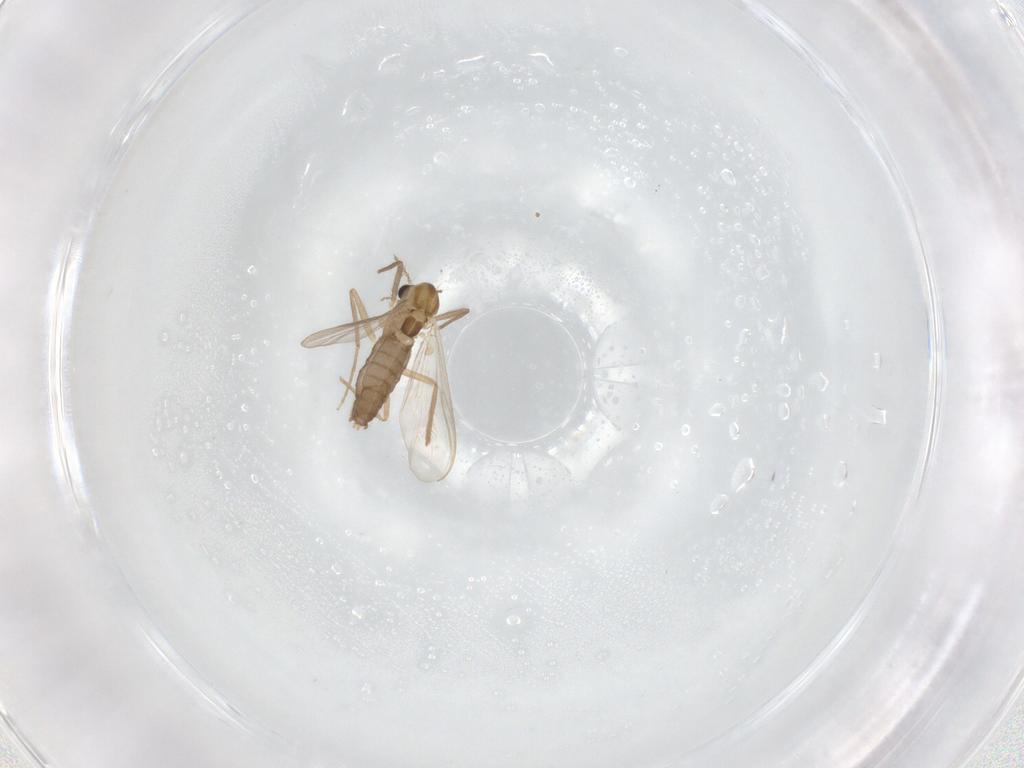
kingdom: Animalia
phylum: Arthropoda
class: Insecta
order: Diptera
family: Chironomidae
